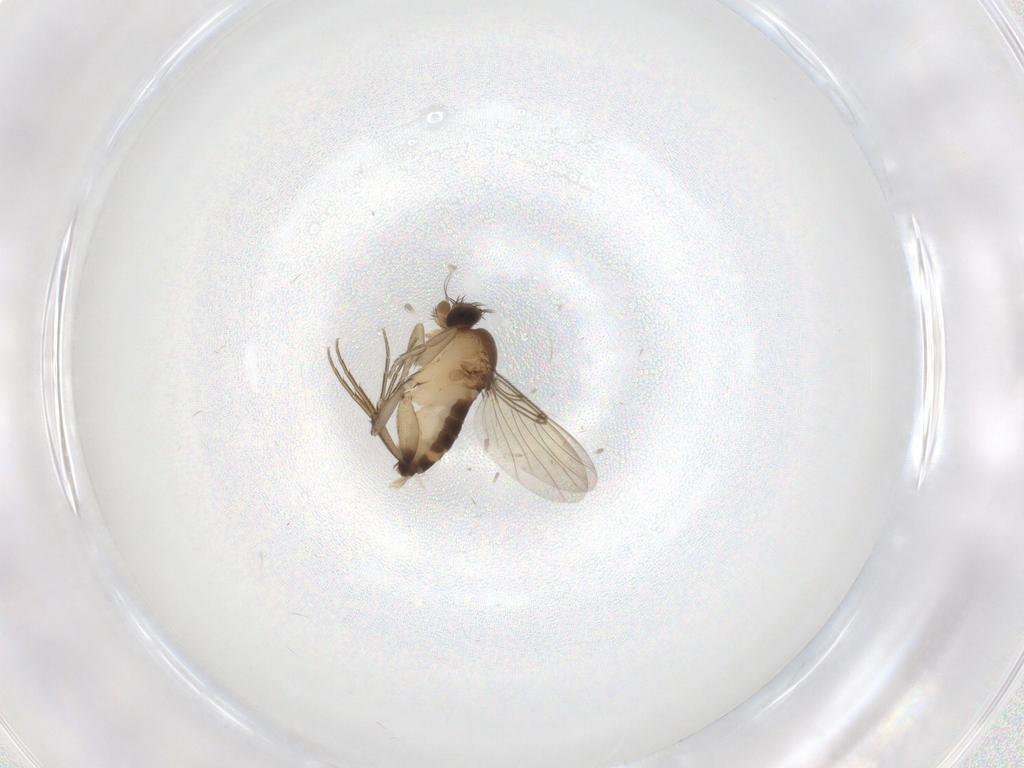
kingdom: Animalia
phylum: Arthropoda
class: Insecta
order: Diptera
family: Phoridae
